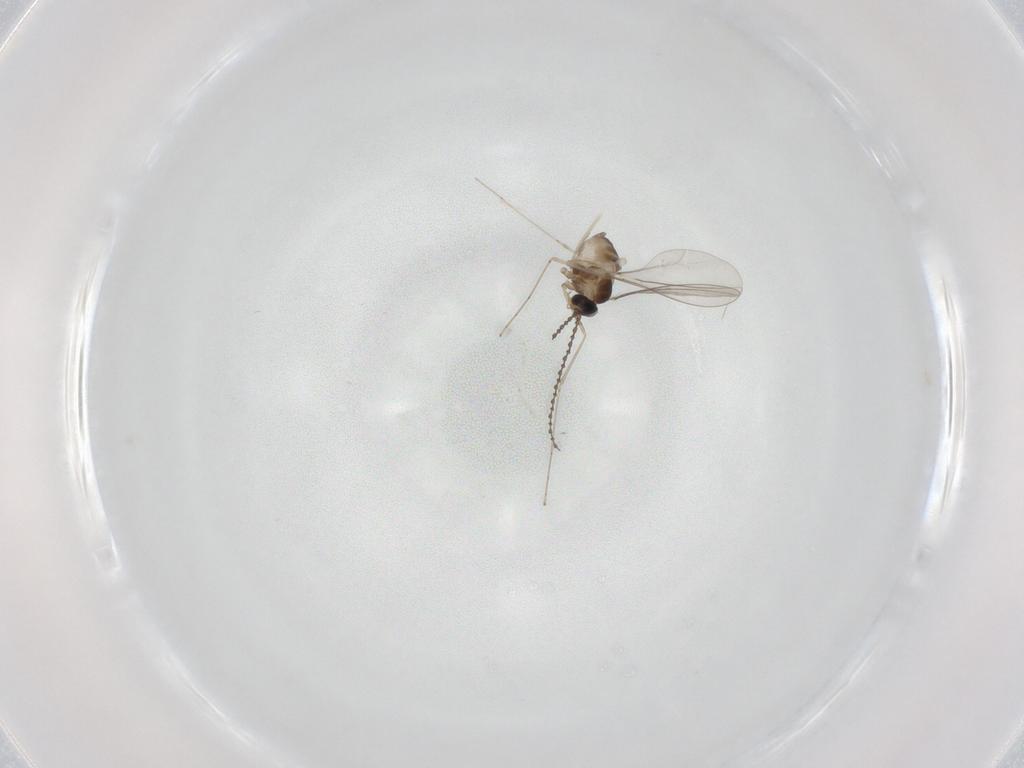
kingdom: Animalia
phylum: Arthropoda
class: Insecta
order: Diptera
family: Cecidomyiidae
